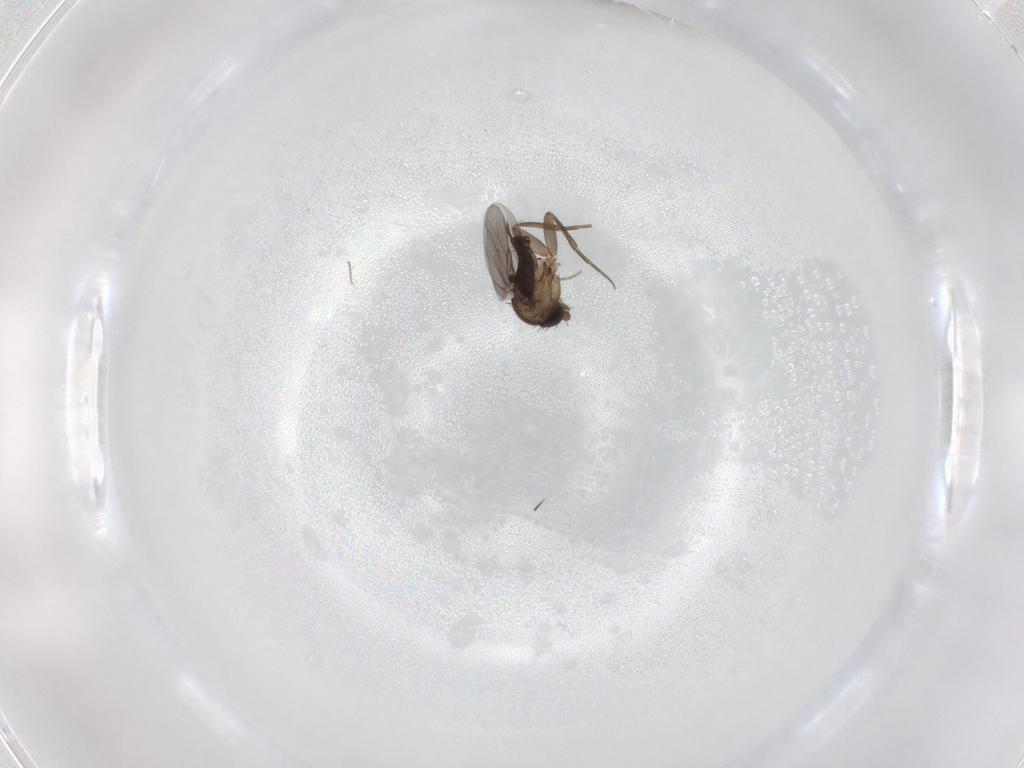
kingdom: Animalia
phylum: Arthropoda
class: Insecta
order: Diptera
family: Phoridae
